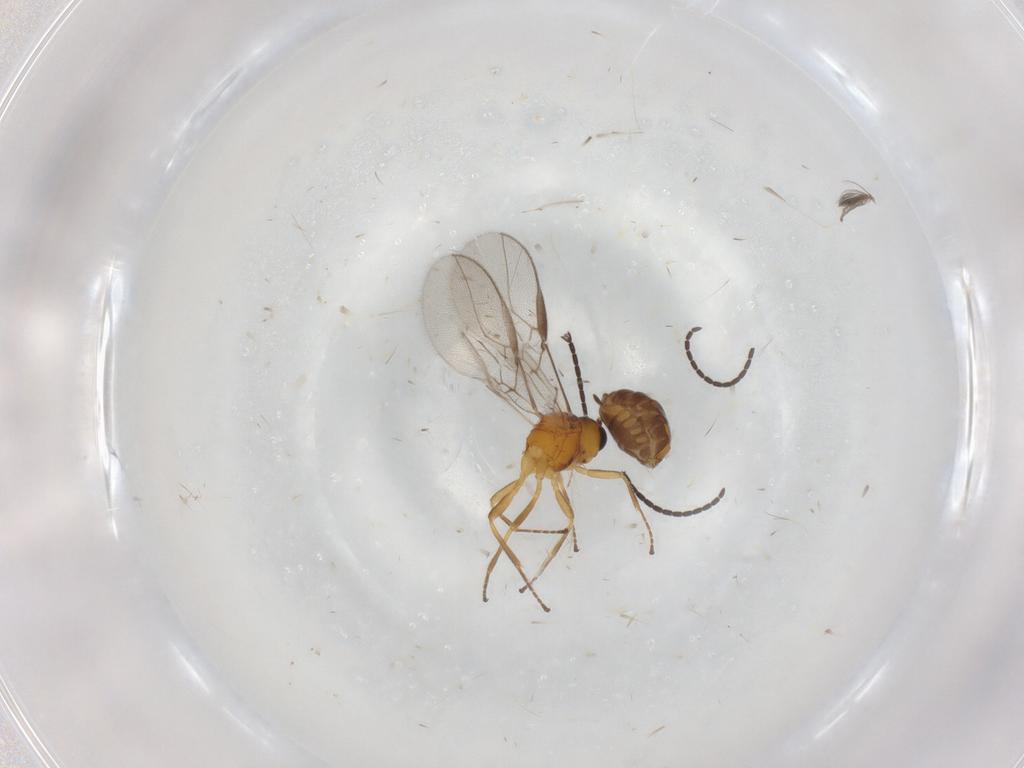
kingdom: Animalia
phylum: Arthropoda
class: Insecta
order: Hymenoptera
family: Braconidae
